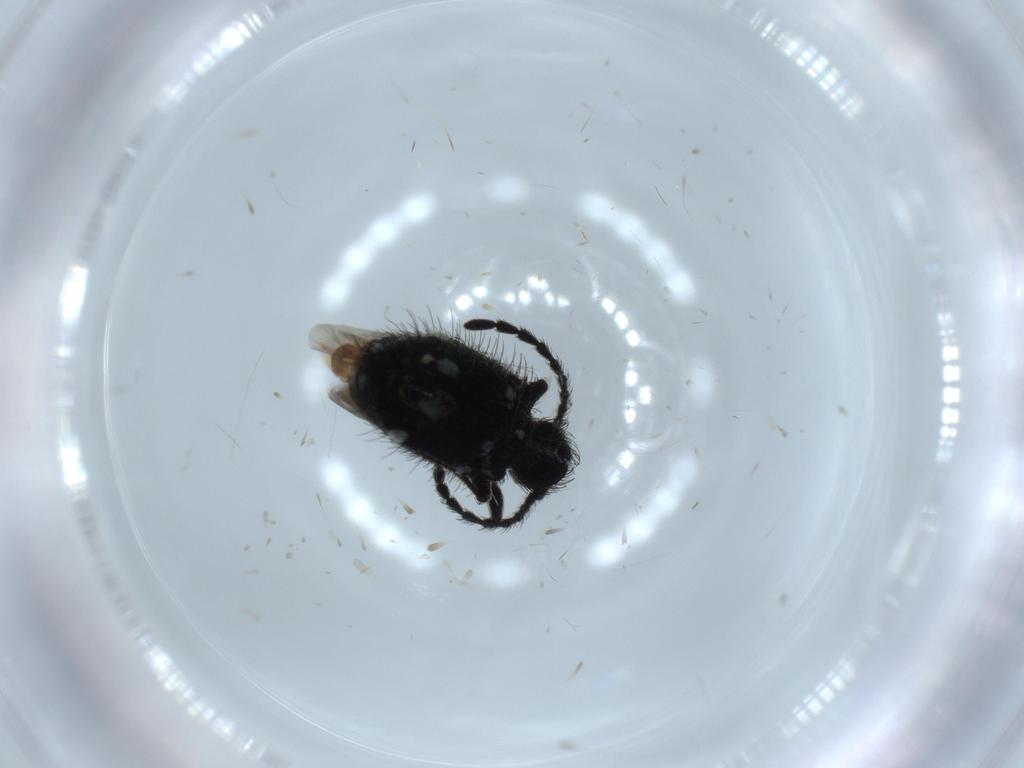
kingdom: Animalia
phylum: Arthropoda
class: Insecta
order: Coleoptera
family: Bostrichidae
